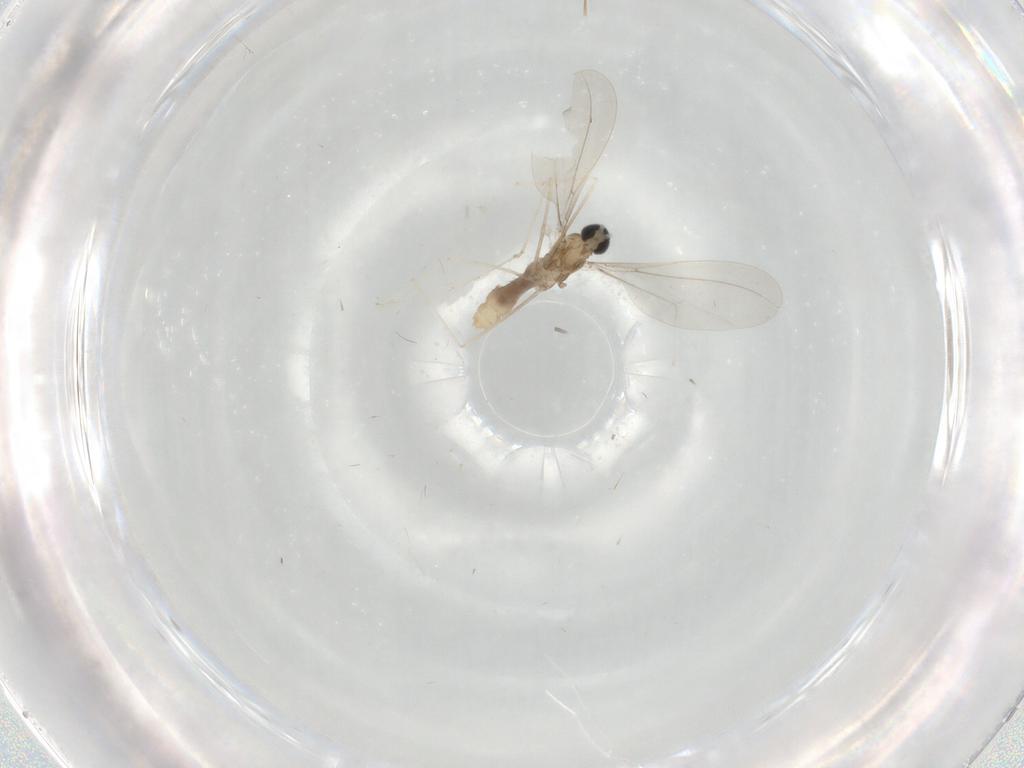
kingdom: Animalia
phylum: Arthropoda
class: Insecta
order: Diptera
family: Cecidomyiidae
